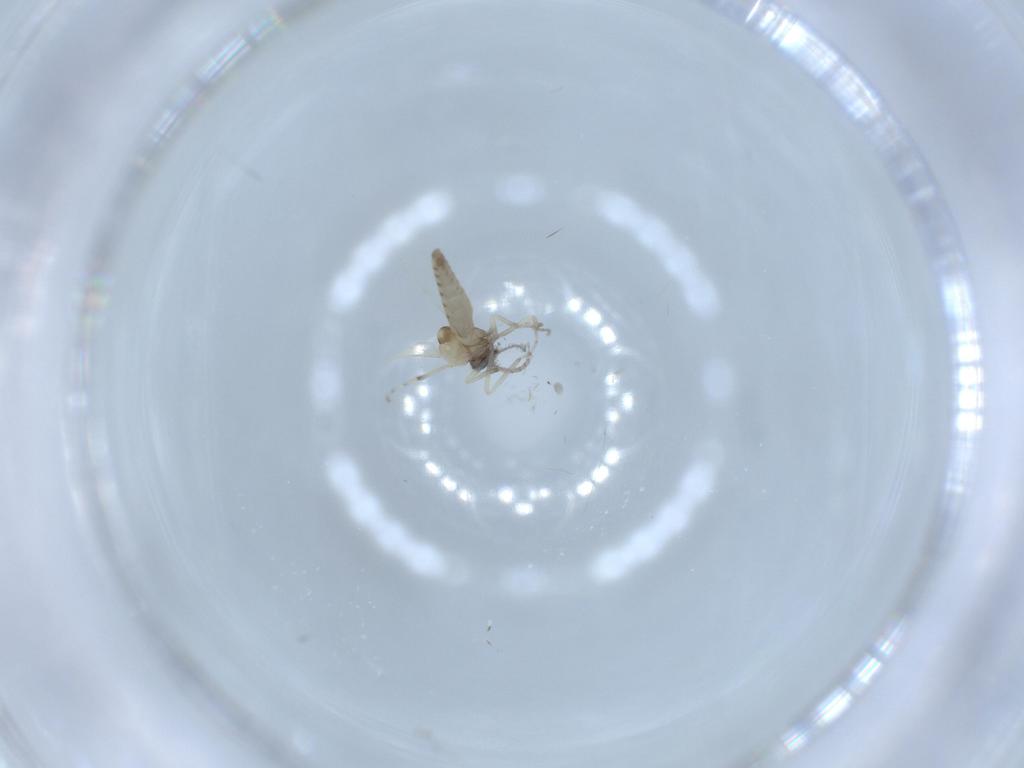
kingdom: Animalia
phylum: Arthropoda
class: Insecta
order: Diptera
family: Ceratopogonidae
